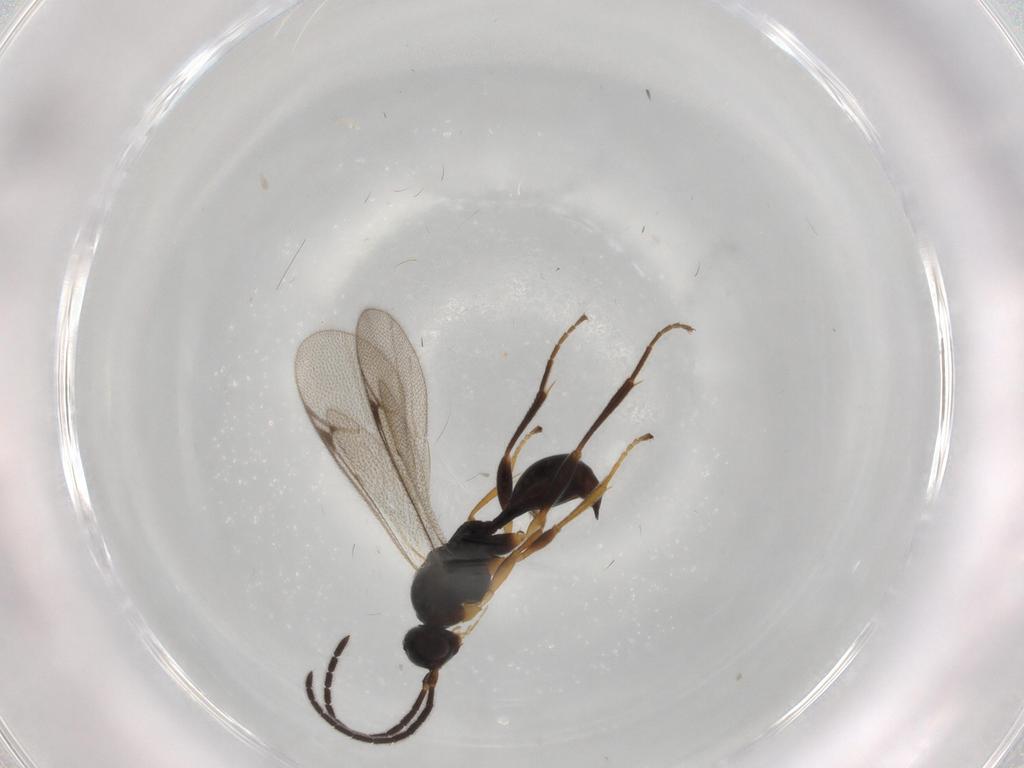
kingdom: Animalia
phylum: Arthropoda
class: Insecta
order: Hymenoptera
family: Proctotrupidae
